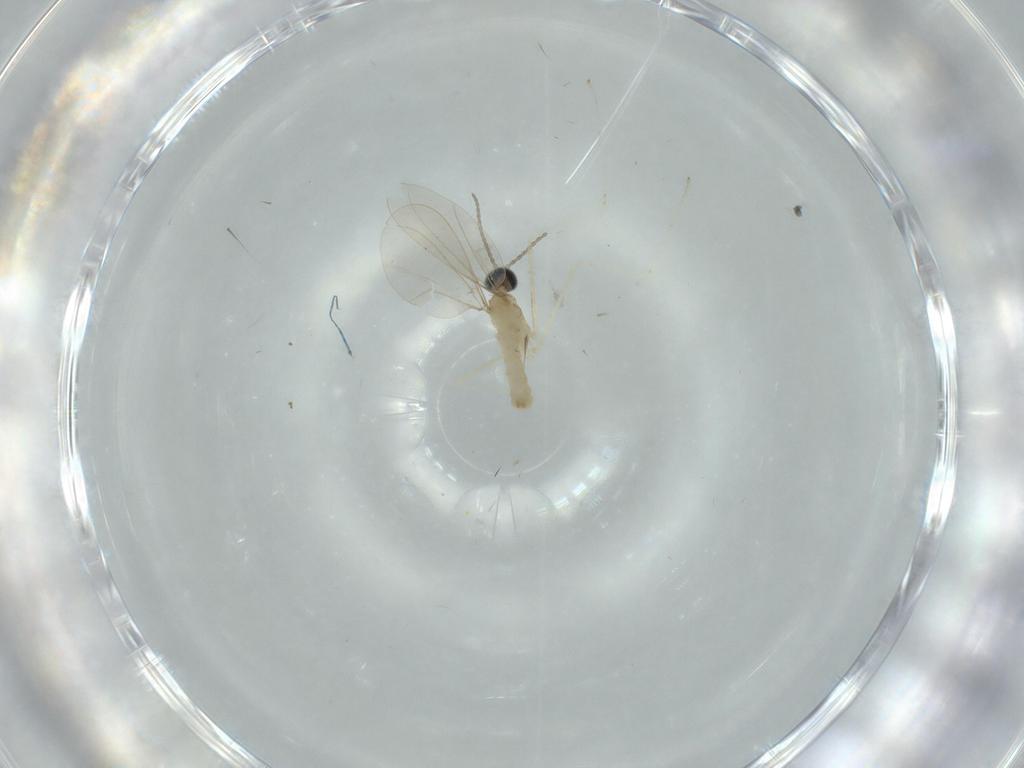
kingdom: Animalia
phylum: Arthropoda
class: Insecta
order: Diptera
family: Cecidomyiidae
